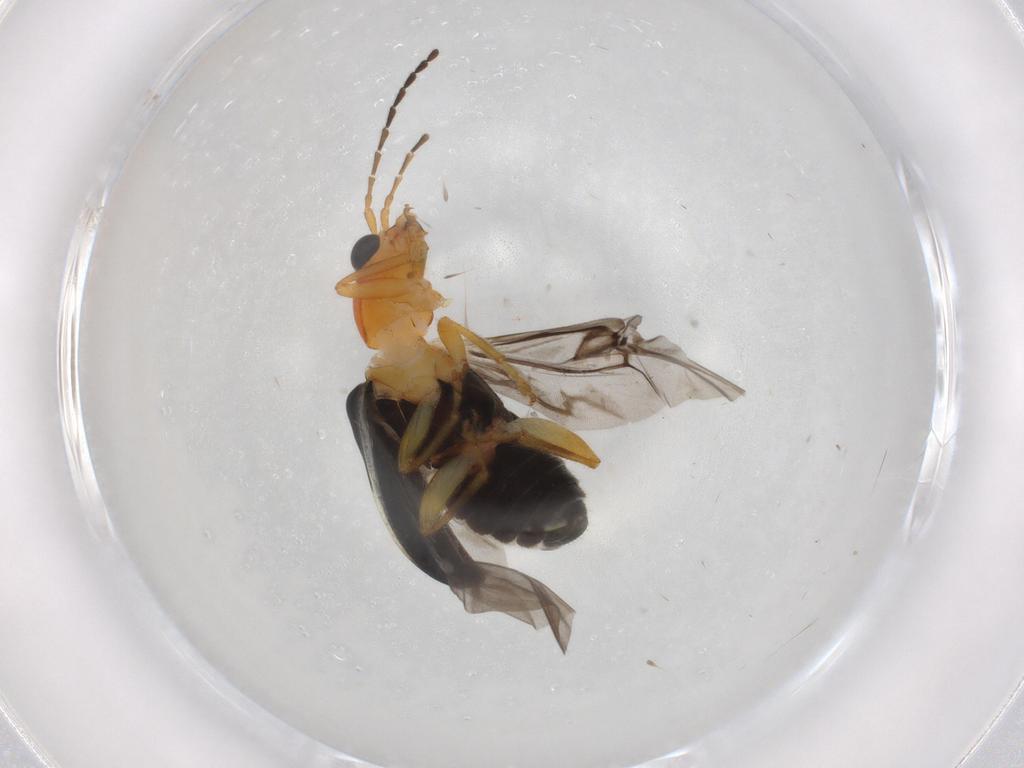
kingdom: Animalia
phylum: Arthropoda
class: Insecta
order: Coleoptera
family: Chrysomelidae
